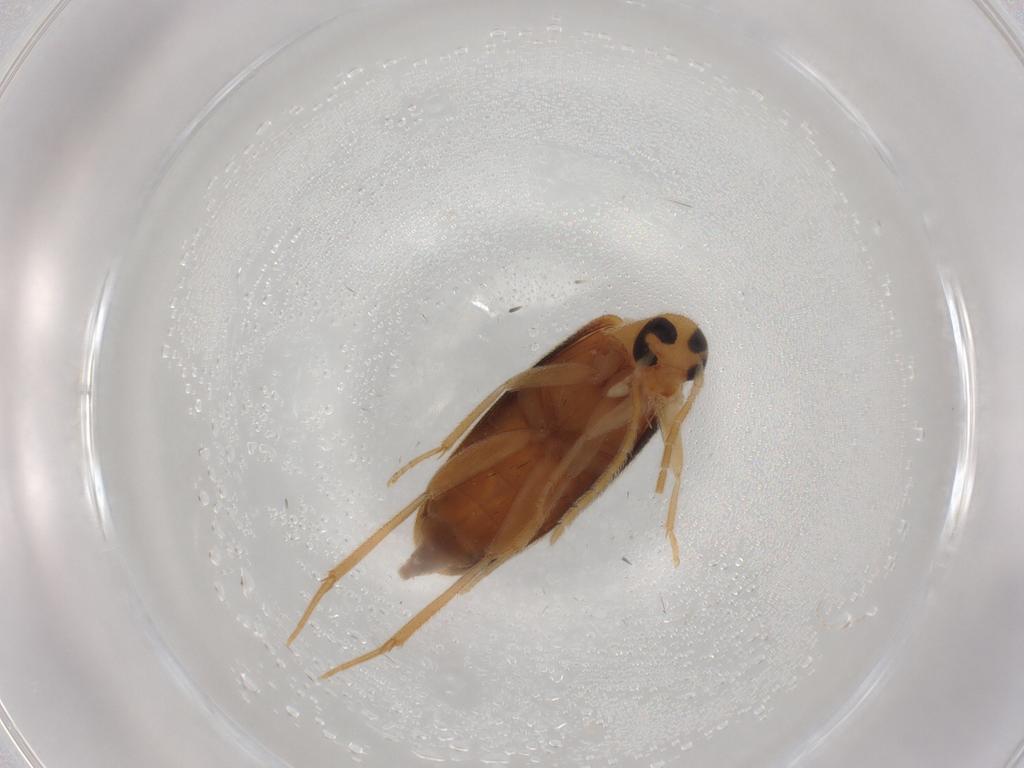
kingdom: Animalia
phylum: Arthropoda
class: Insecta
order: Coleoptera
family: Scraptiidae
